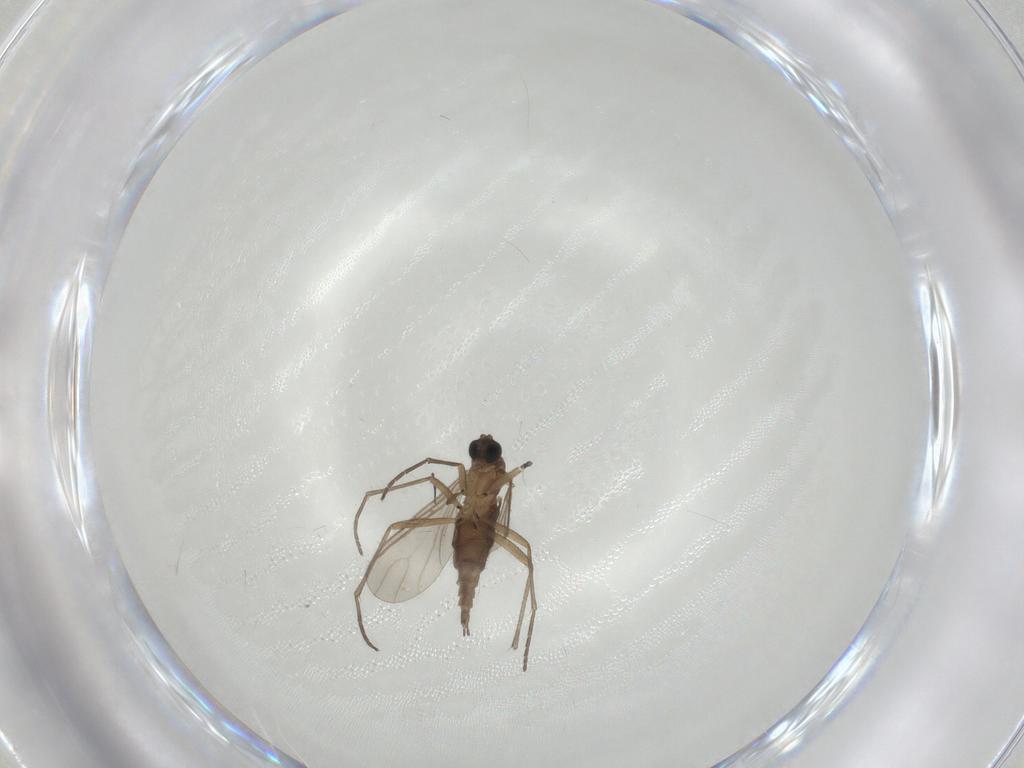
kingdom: Animalia
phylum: Arthropoda
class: Insecta
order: Diptera
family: Sciaridae
